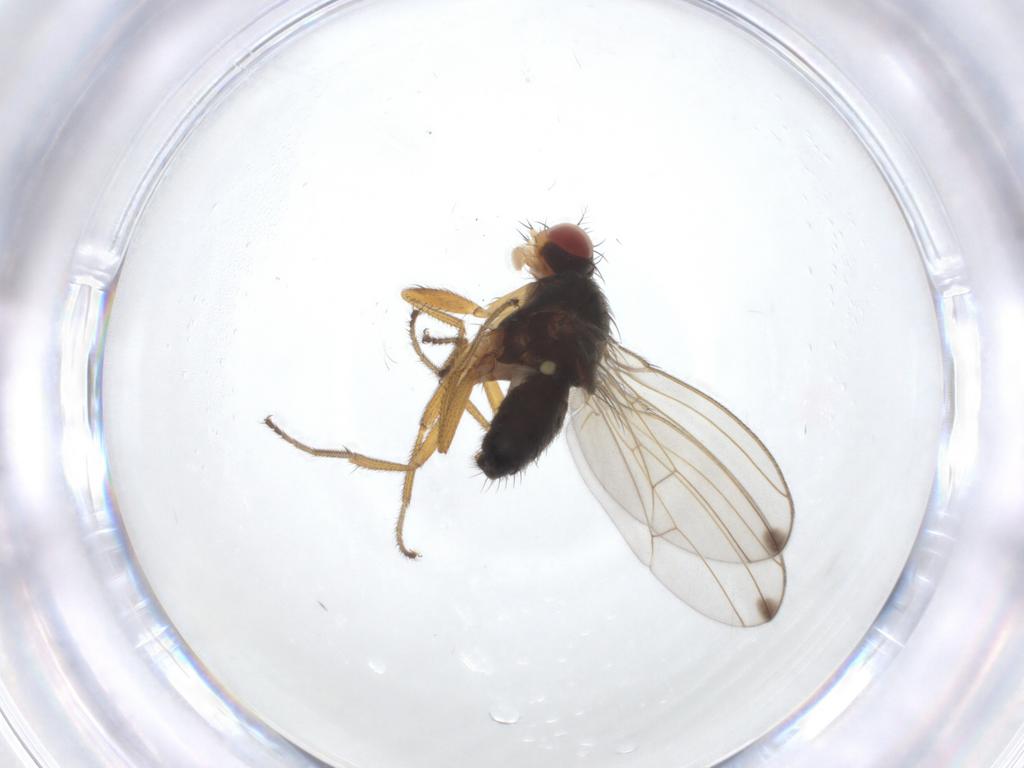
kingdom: Animalia
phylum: Arthropoda
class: Insecta
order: Diptera
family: Drosophilidae
